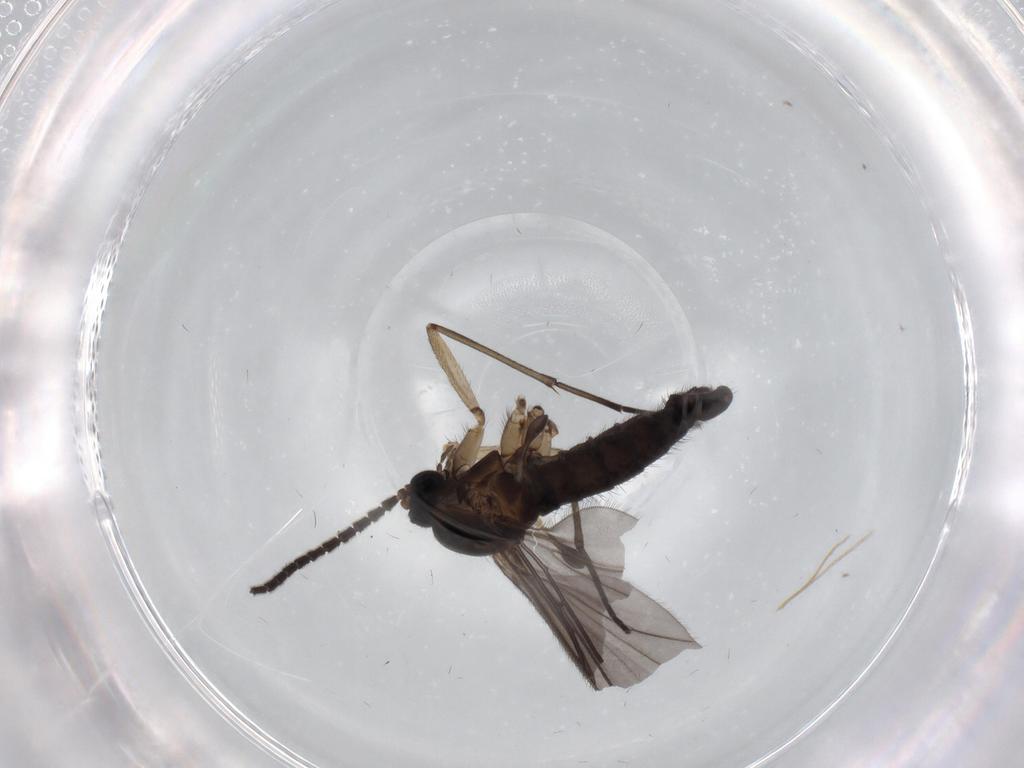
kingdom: Animalia
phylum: Arthropoda
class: Insecta
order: Diptera
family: Sciaridae
